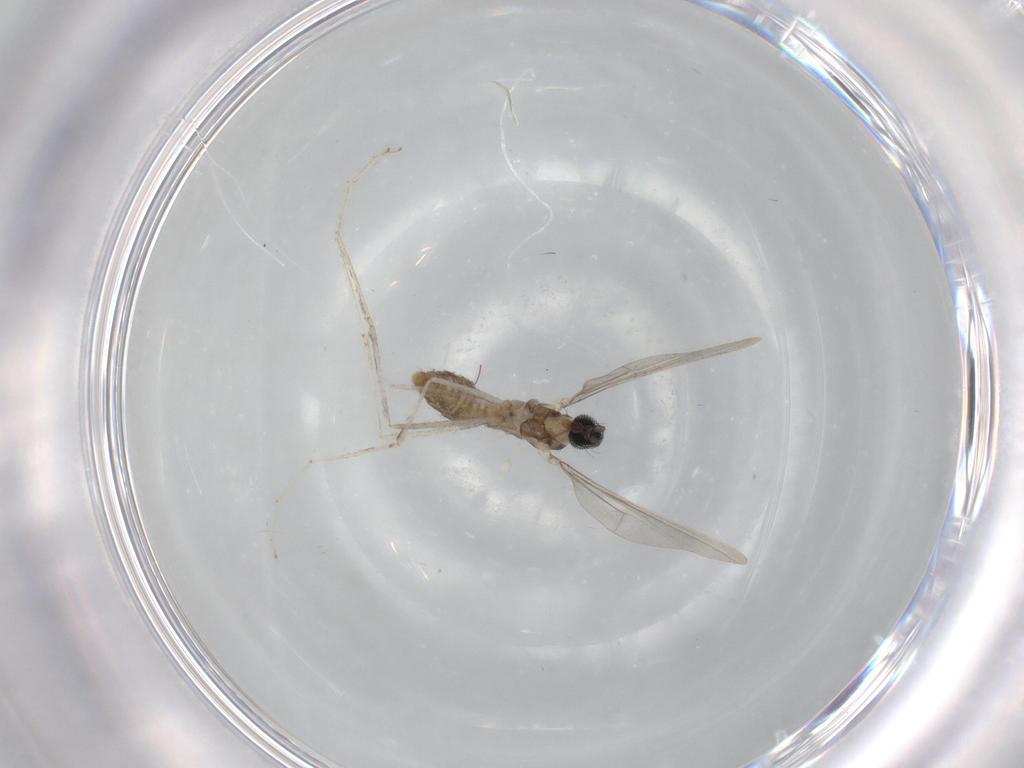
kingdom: Animalia
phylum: Arthropoda
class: Insecta
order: Diptera
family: Cecidomyiidae
